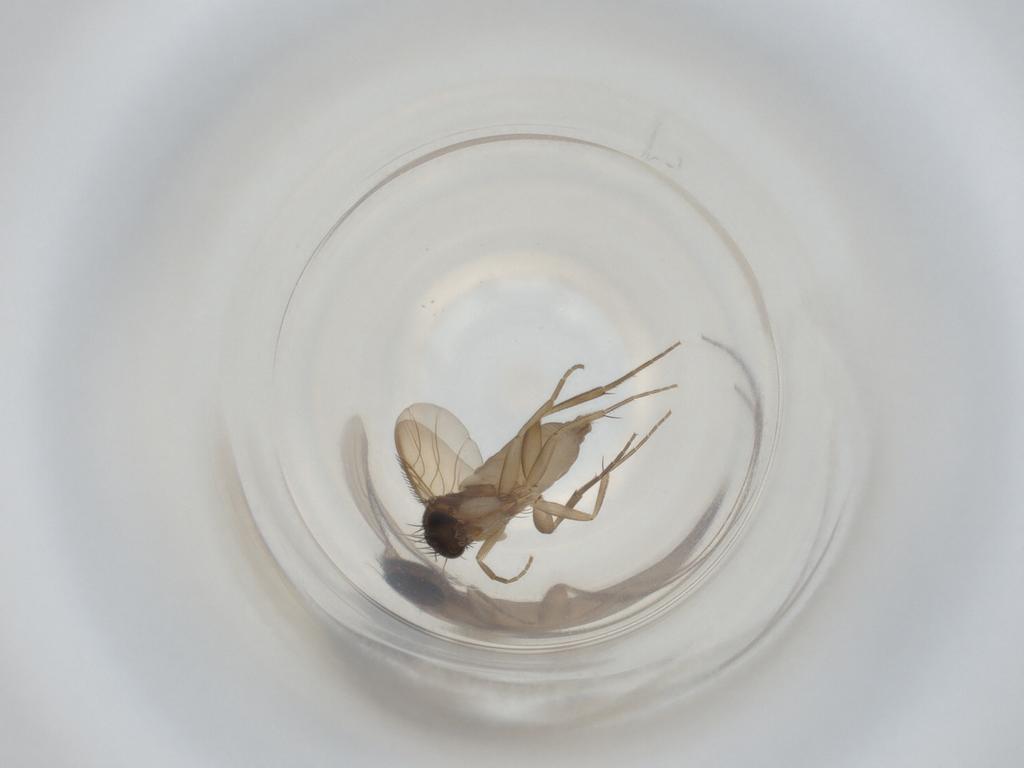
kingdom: Animalia
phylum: Arthropoda
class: Insecta
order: Diptera
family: Phoridae
